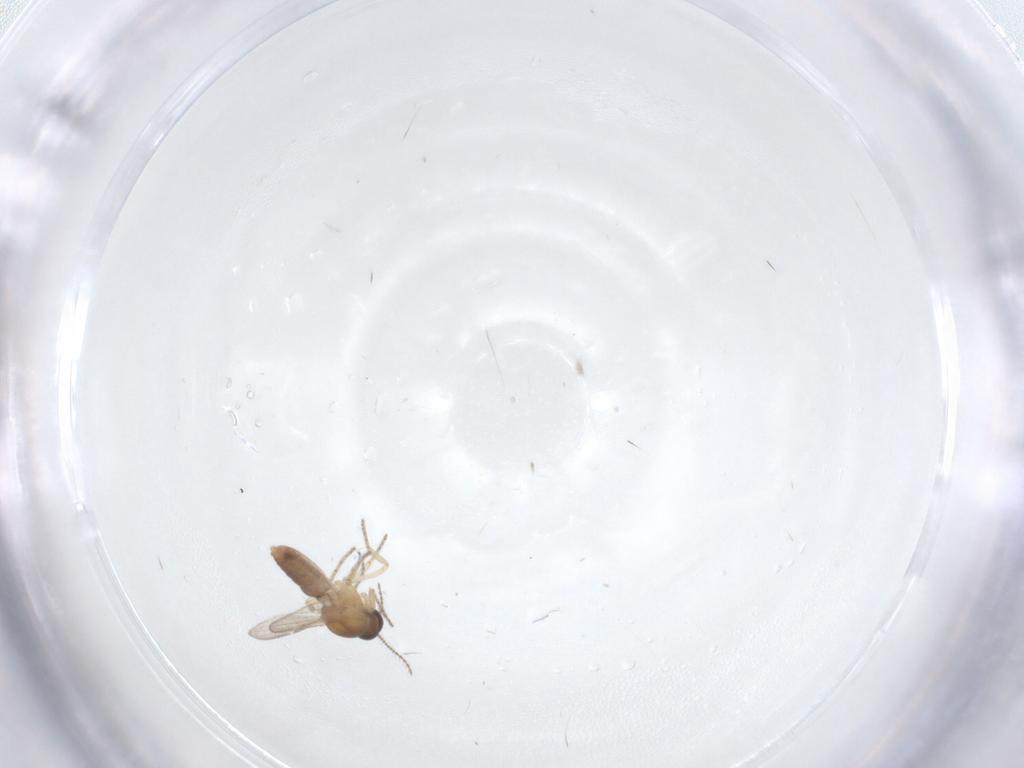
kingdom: Animalia
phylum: Arthropoda
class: Insecta
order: Diptera
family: Ceratopogonidae
